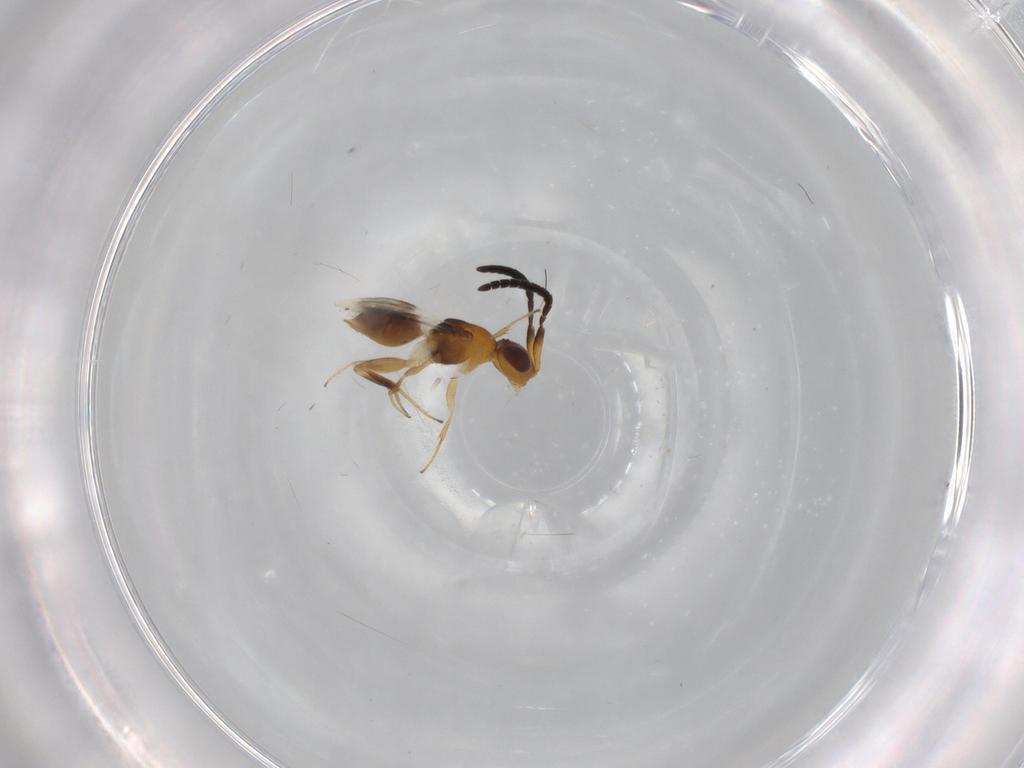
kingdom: Animalia
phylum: Arthropoda
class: Insecta
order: Hymenoptera
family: Megaspilidae
